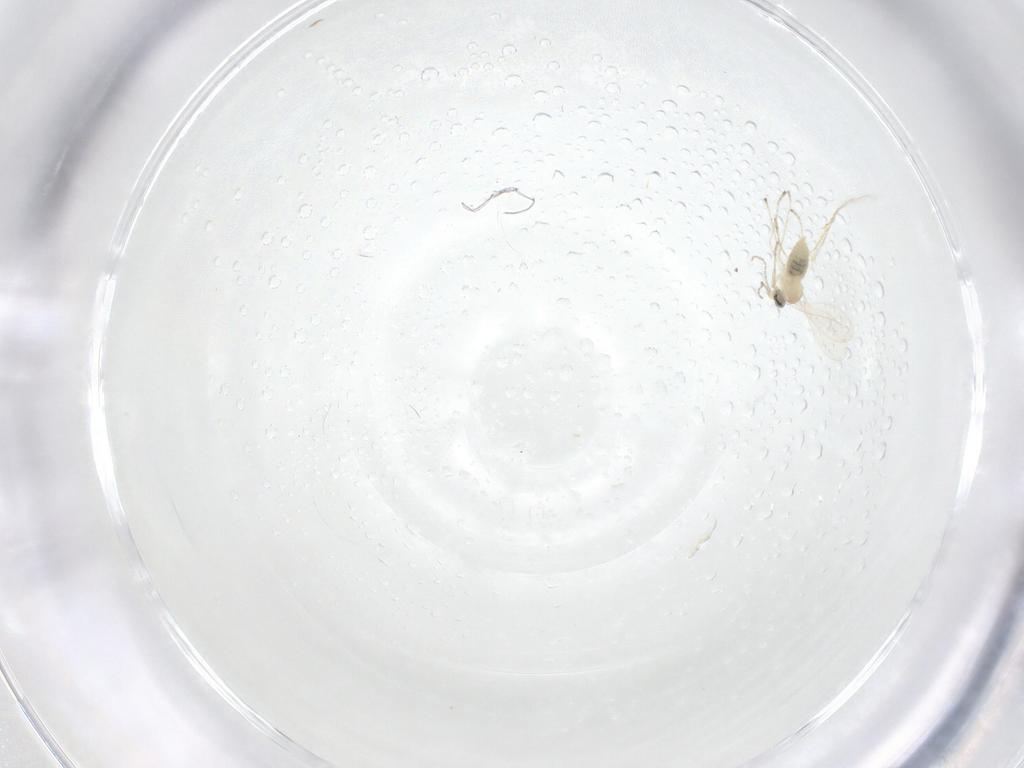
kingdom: Animalia
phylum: Arthropoda
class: Insecta
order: Diptera
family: Cecidomyiidae
